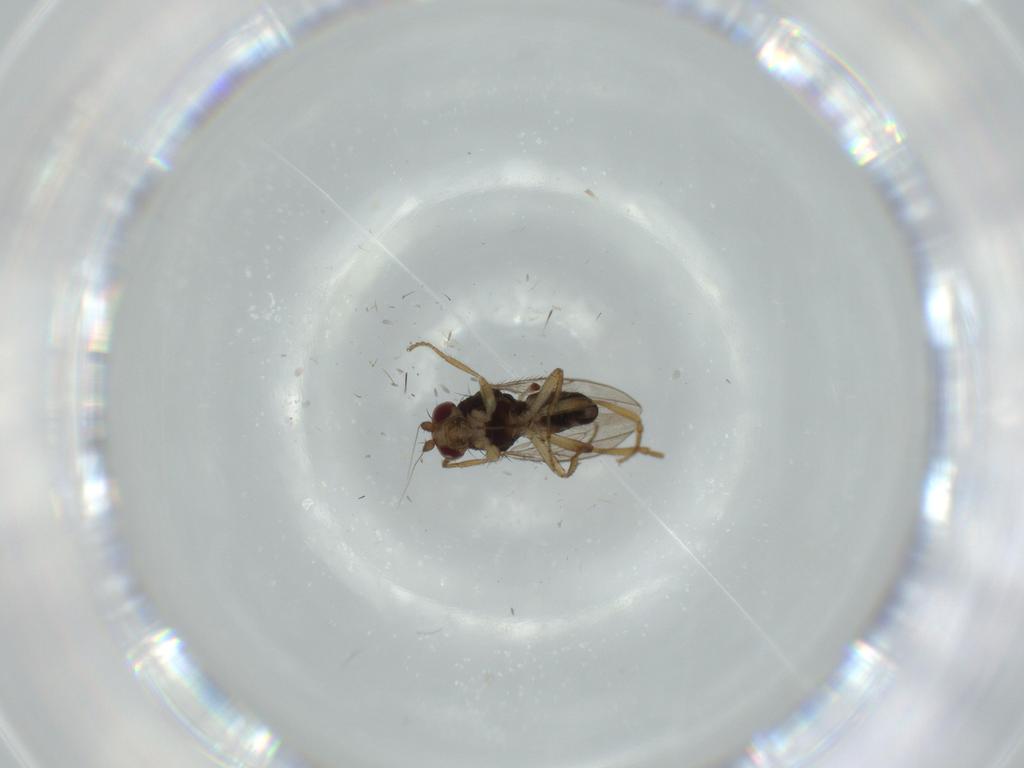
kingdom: Animalia
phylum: Arthropoda
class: Insecta
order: Diptera
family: Sphaeroceridae
